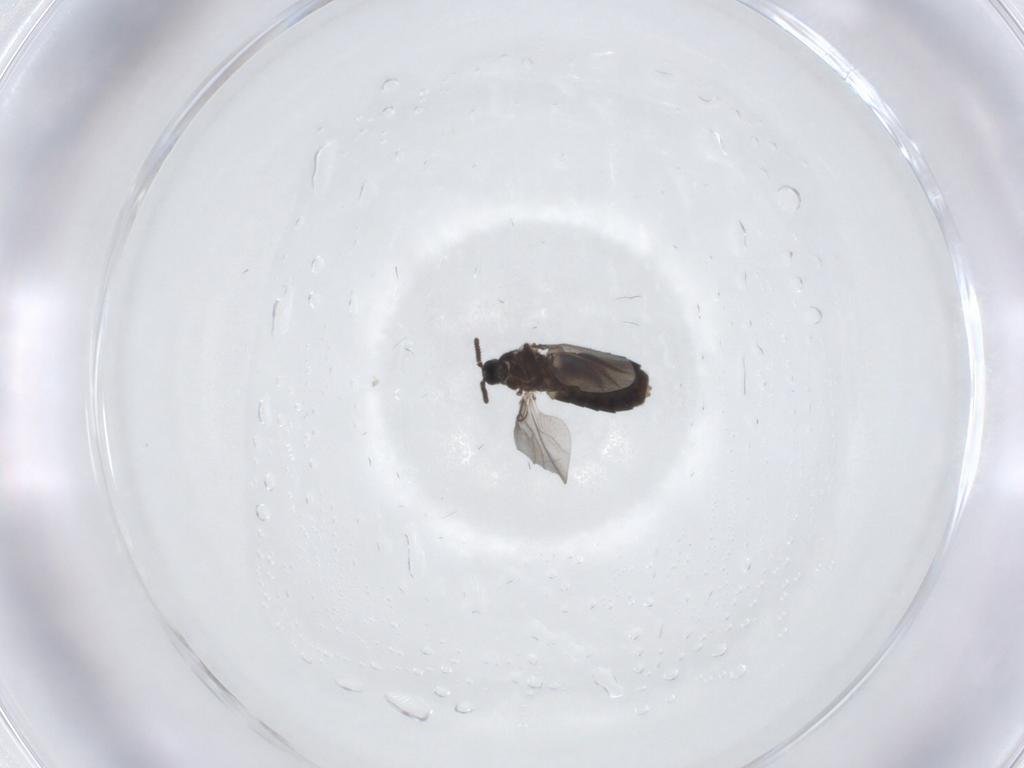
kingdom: Animalia
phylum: Arthropoda
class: Insecta
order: Diptera
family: Scatopsidae
